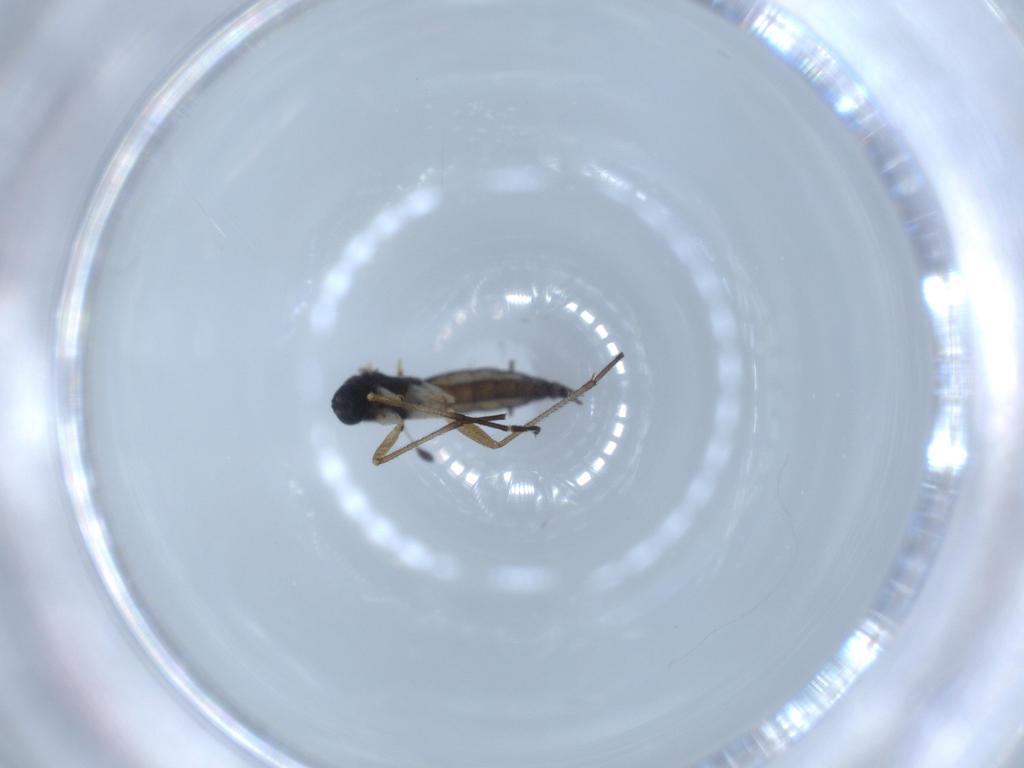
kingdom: Animalia
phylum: Arthropoda
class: Insecta
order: Diptera
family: Sciaridae
